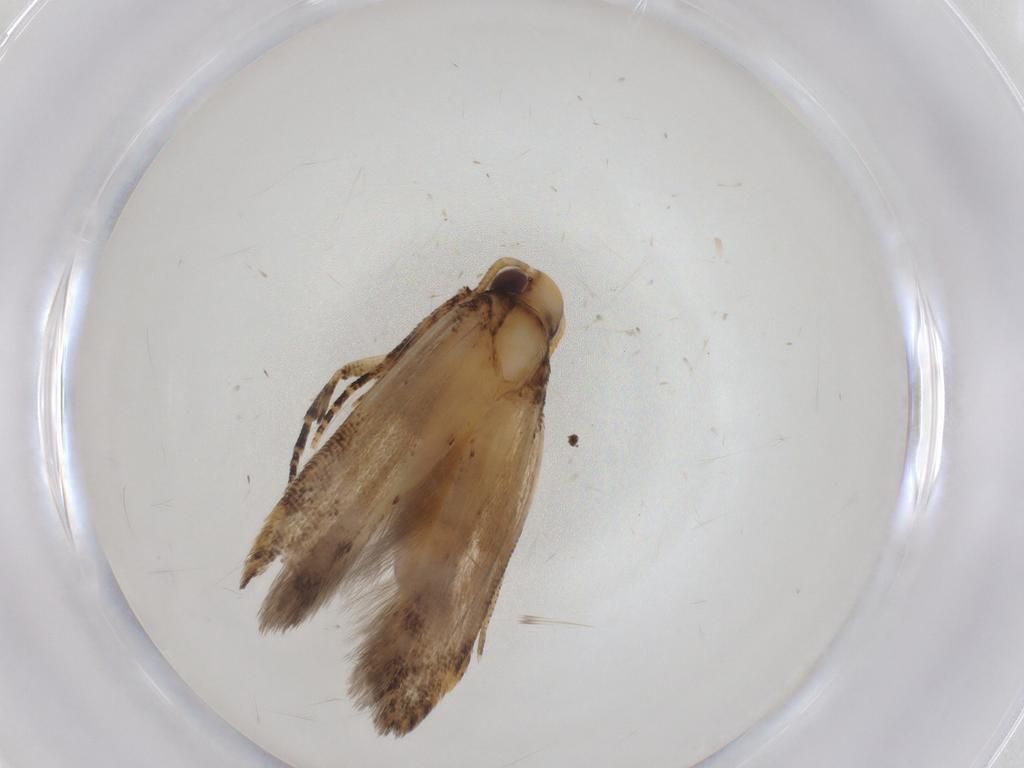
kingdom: Animalia
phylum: Arthropoda
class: Insecta
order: Lepidoptera
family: Gelechiidae
